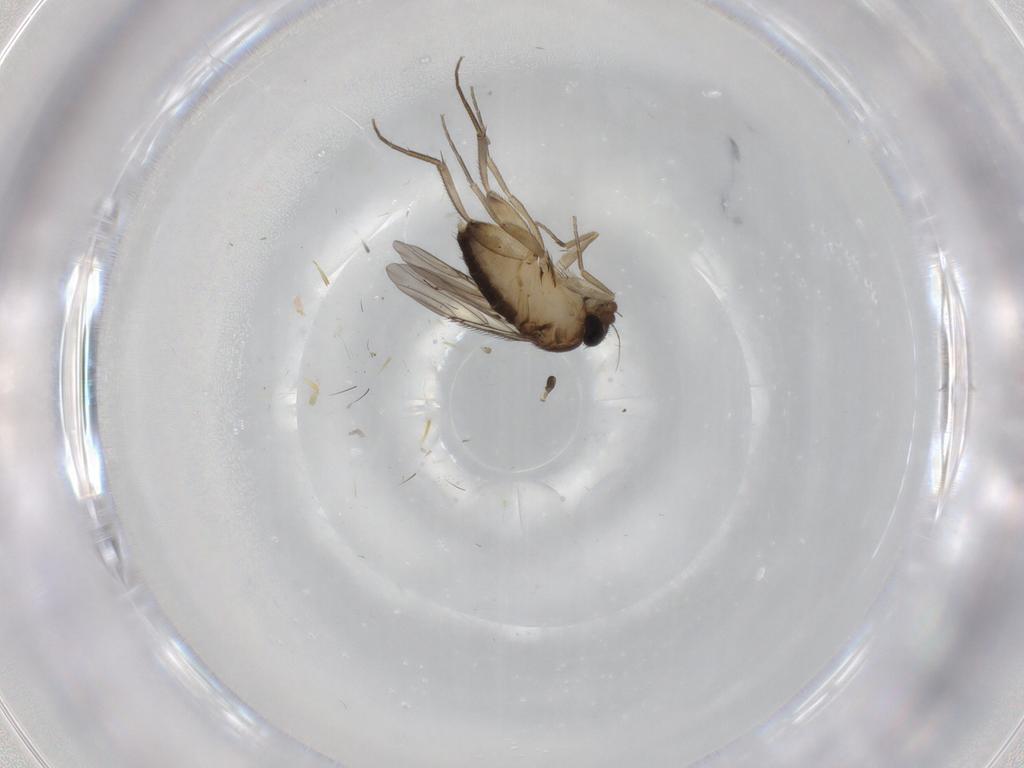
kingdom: Animalia
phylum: Arthropoda
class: Insecta
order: Diptera
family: Phoridae
